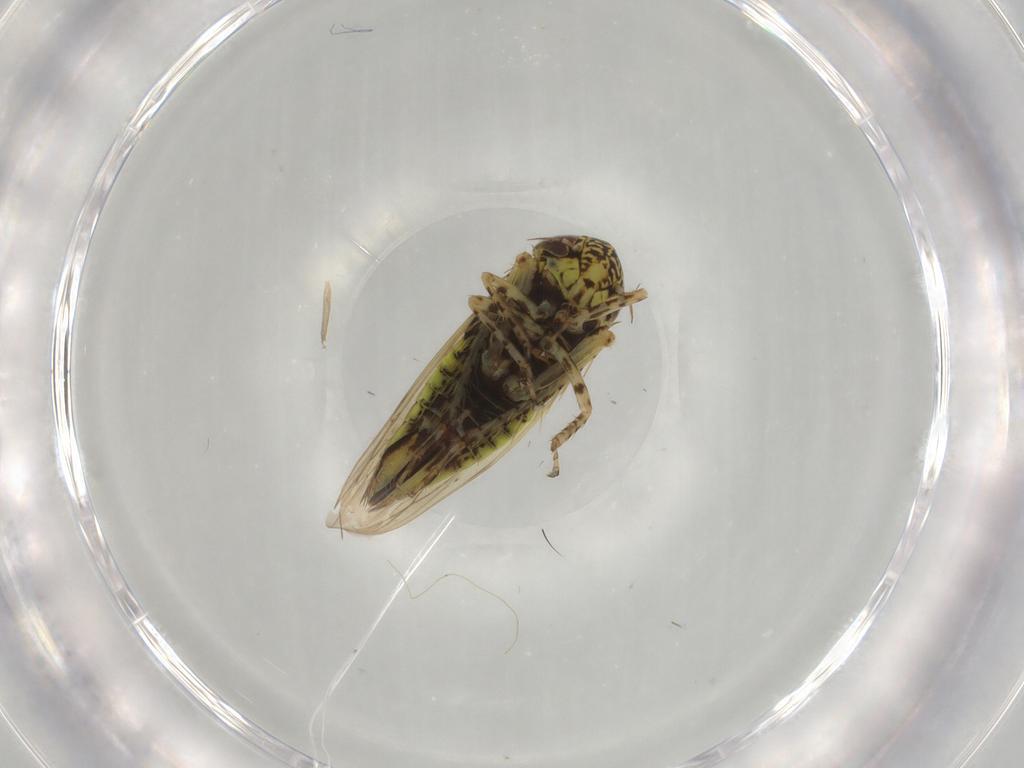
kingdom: Animalia
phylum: Arthropoda
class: Insecta
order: Hemiptera
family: Cicadellidae
